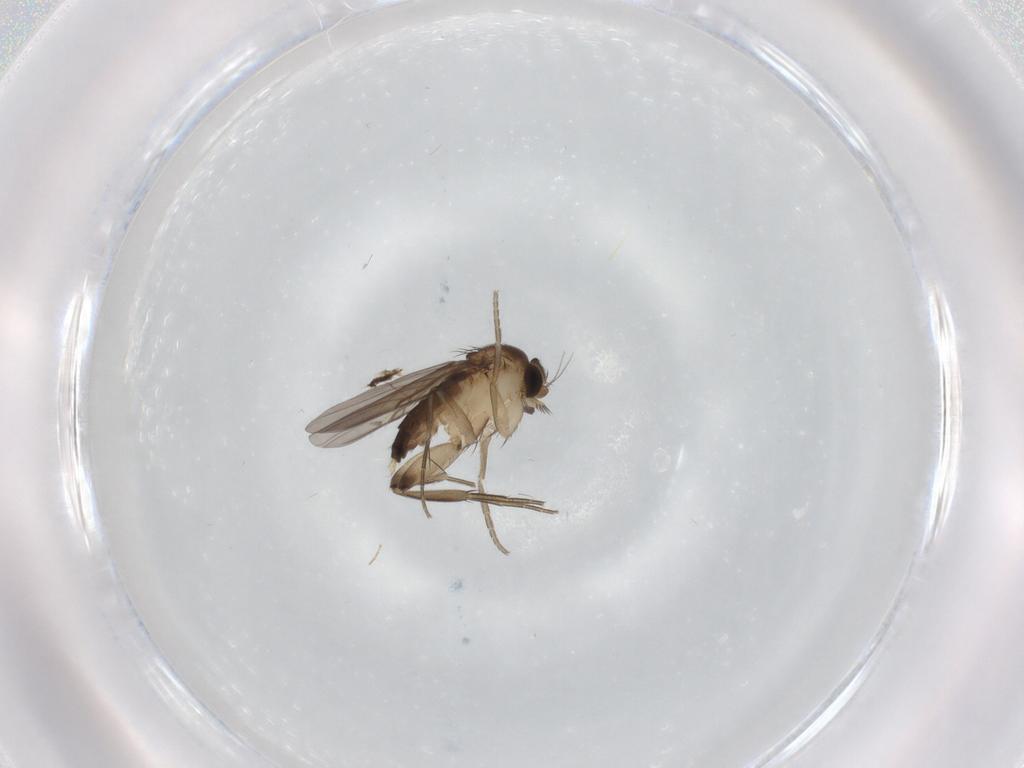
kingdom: Animalia
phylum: Arthropoda
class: Insecta
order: Diptera
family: Phoridae
